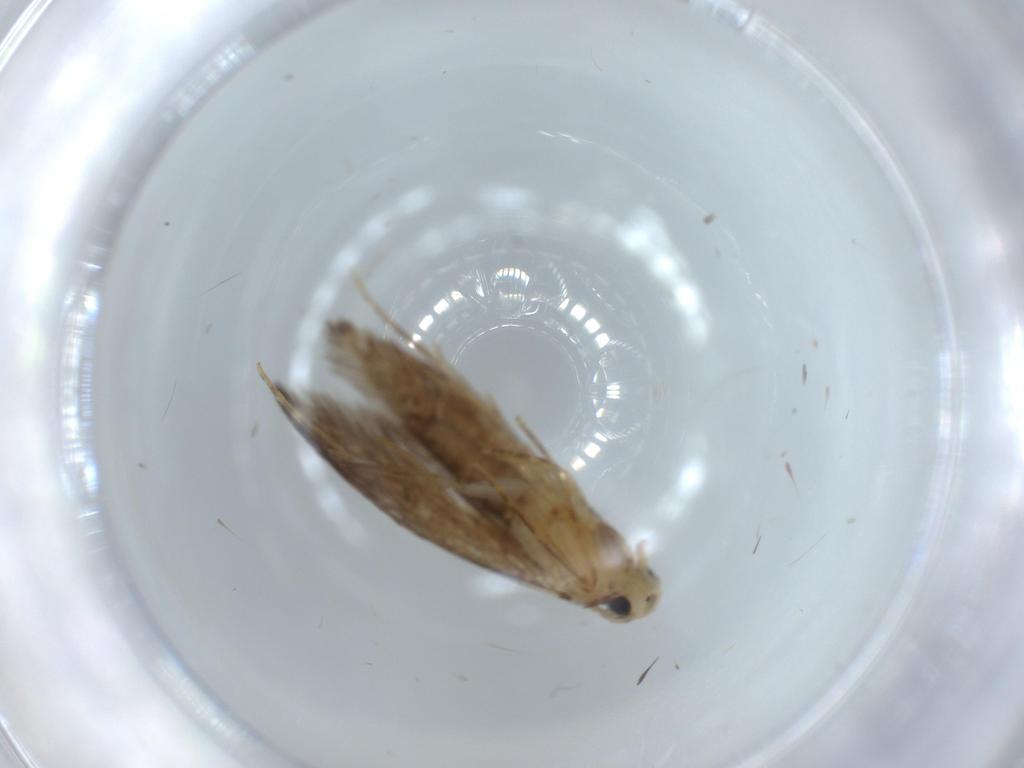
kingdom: Animalia
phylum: Arthropoda
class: Insecta
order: Lepidoptera
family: Tineidae
